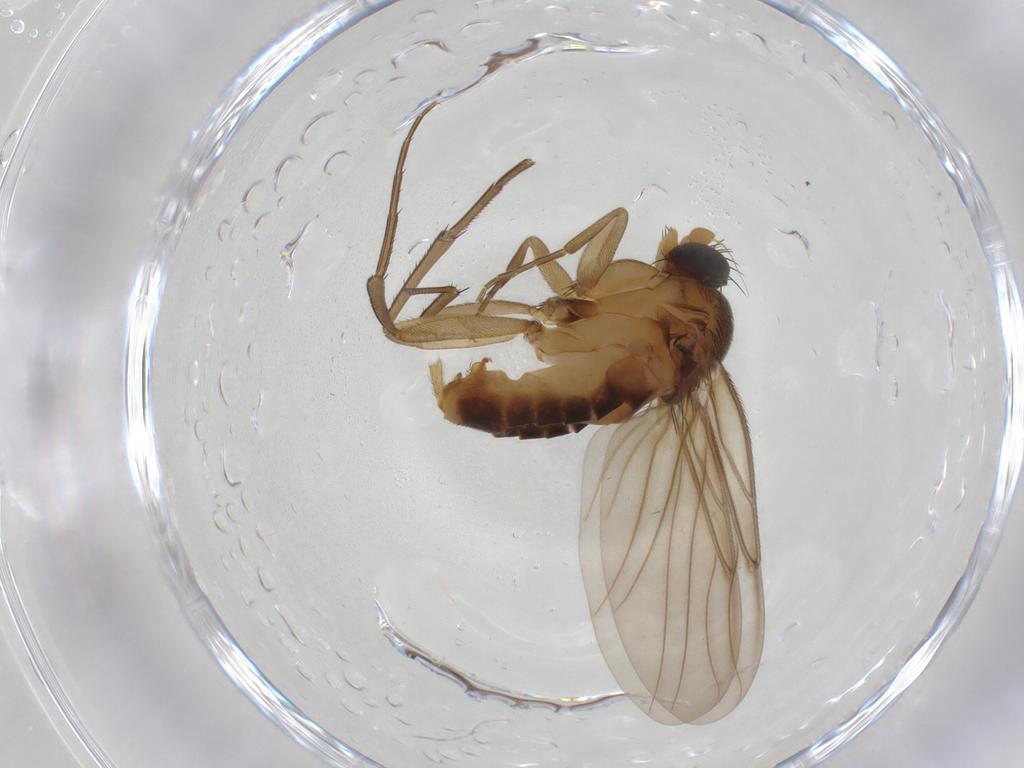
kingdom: Animalia
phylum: Arthropoda
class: Insecta
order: Diptera
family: Phoridae
